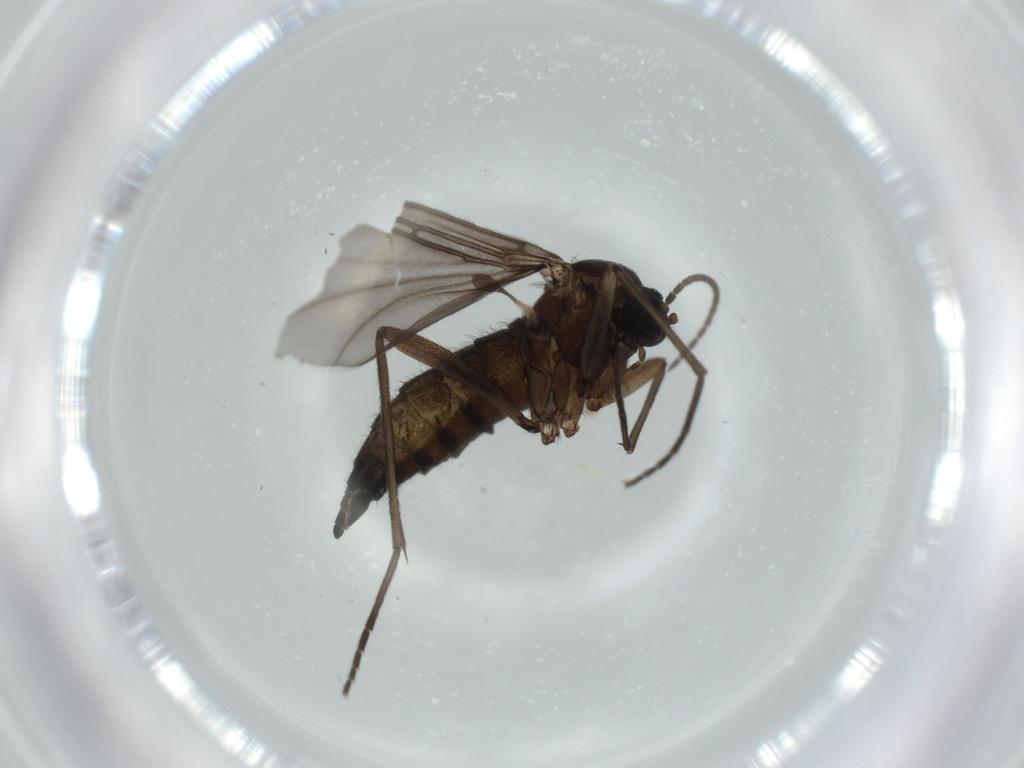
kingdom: Animalia
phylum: Arthropoda
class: Insecta
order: Diptera
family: Sciaridae
